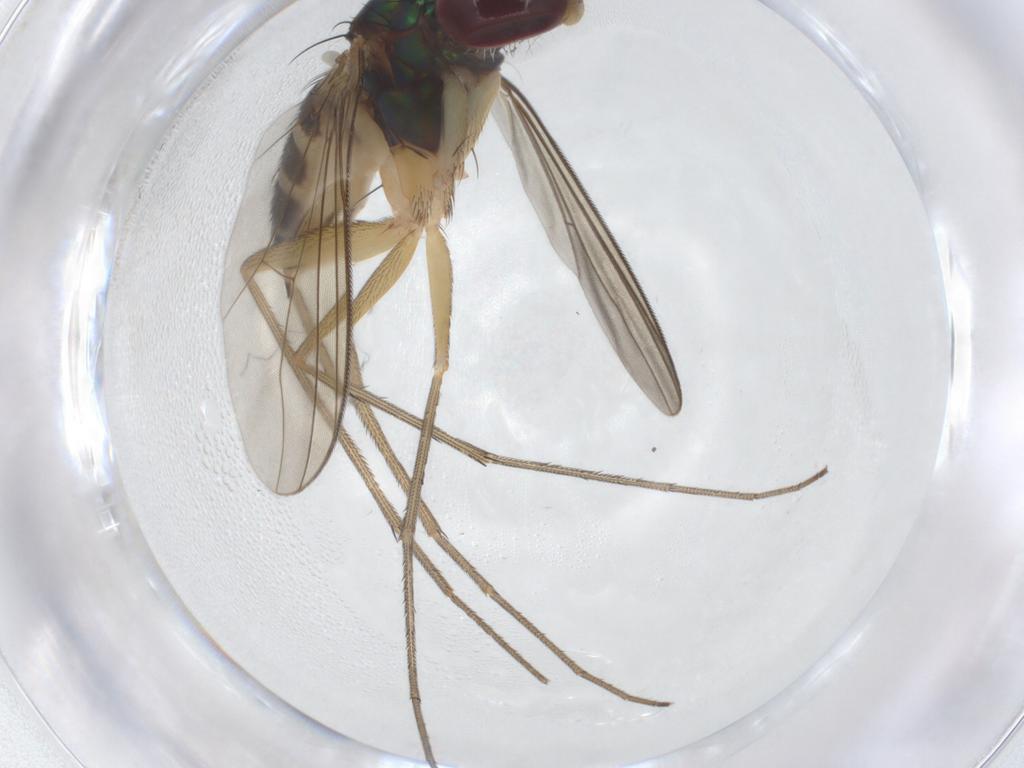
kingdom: Animalia
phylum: Arthropoda
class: Insecta
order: Diptera
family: Dolichopodidae
